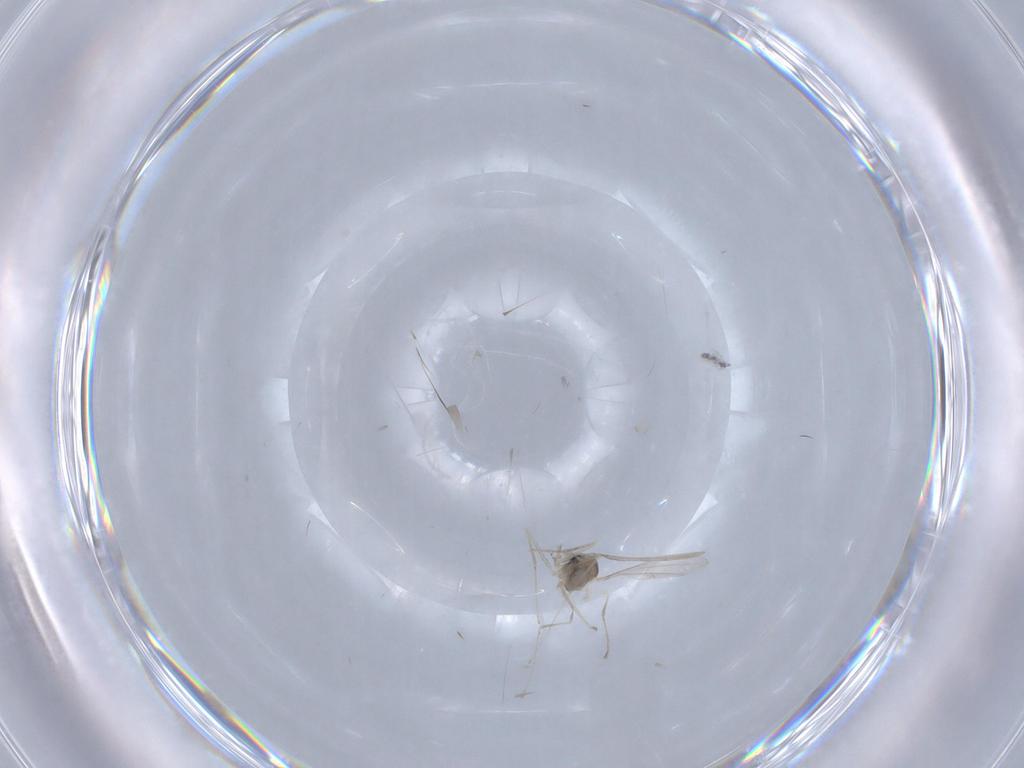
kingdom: Animalia
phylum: Arthropoda
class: Insecta
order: Diptera
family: Cecidomyiidae
